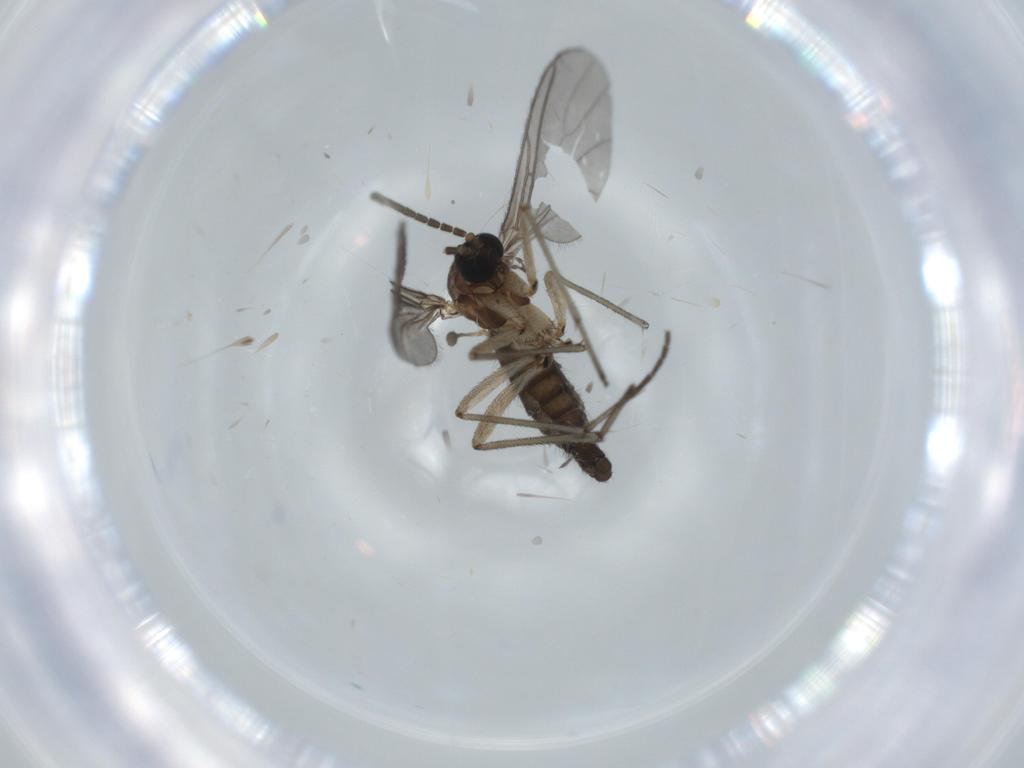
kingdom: Animalia
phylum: Arthropoda
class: Insecta
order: Diptera
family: Sciaridae
